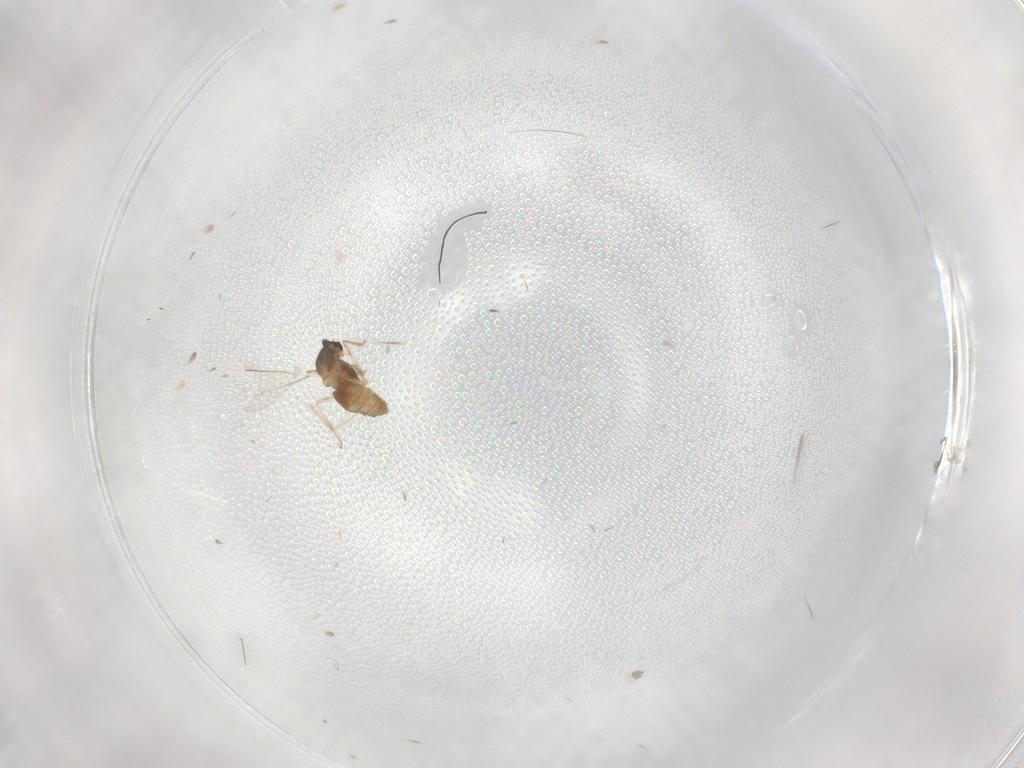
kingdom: Animalia
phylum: Arthropoda
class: Insecta
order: Diptera
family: Cecidomyiidae
